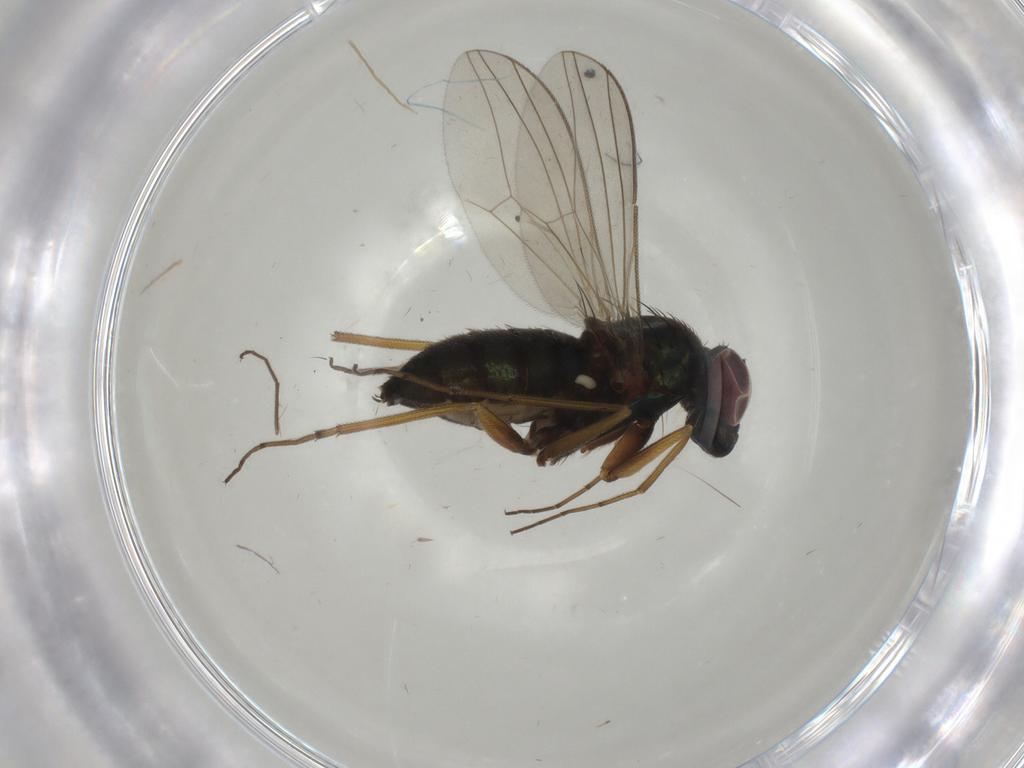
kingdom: Animalia
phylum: Arthropoda
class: Insecta
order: Diptera
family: Dolichopodidae
